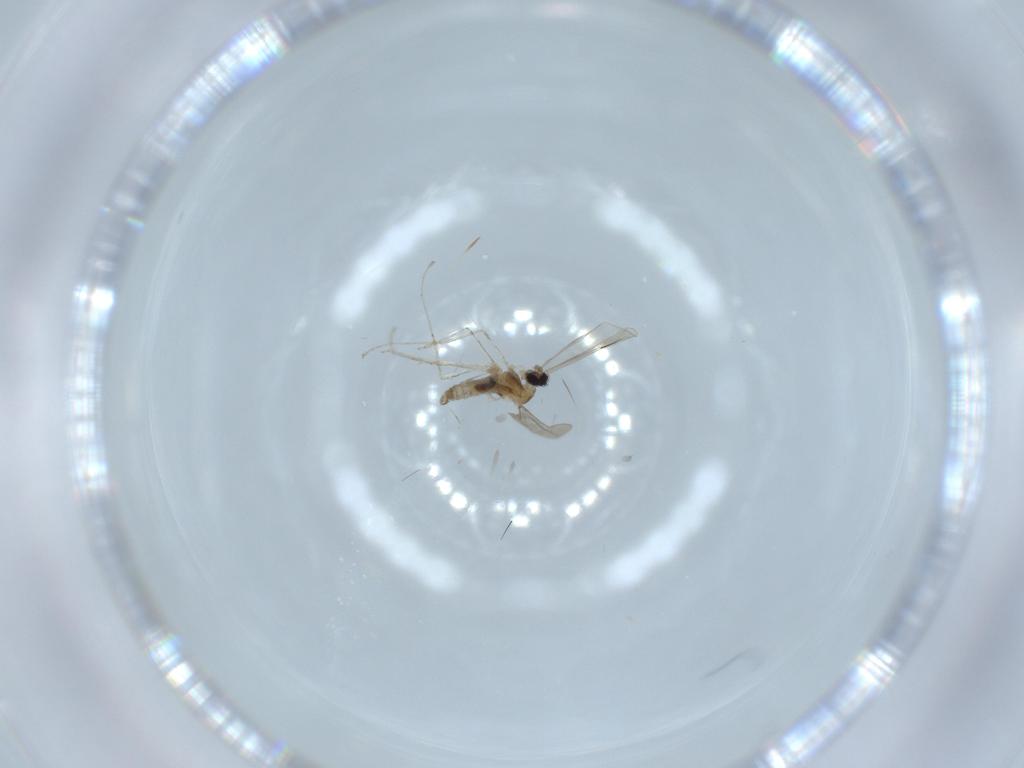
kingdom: Animalia
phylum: Arthropoda
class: Insecta
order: Diptera
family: Cecidomyiidae
